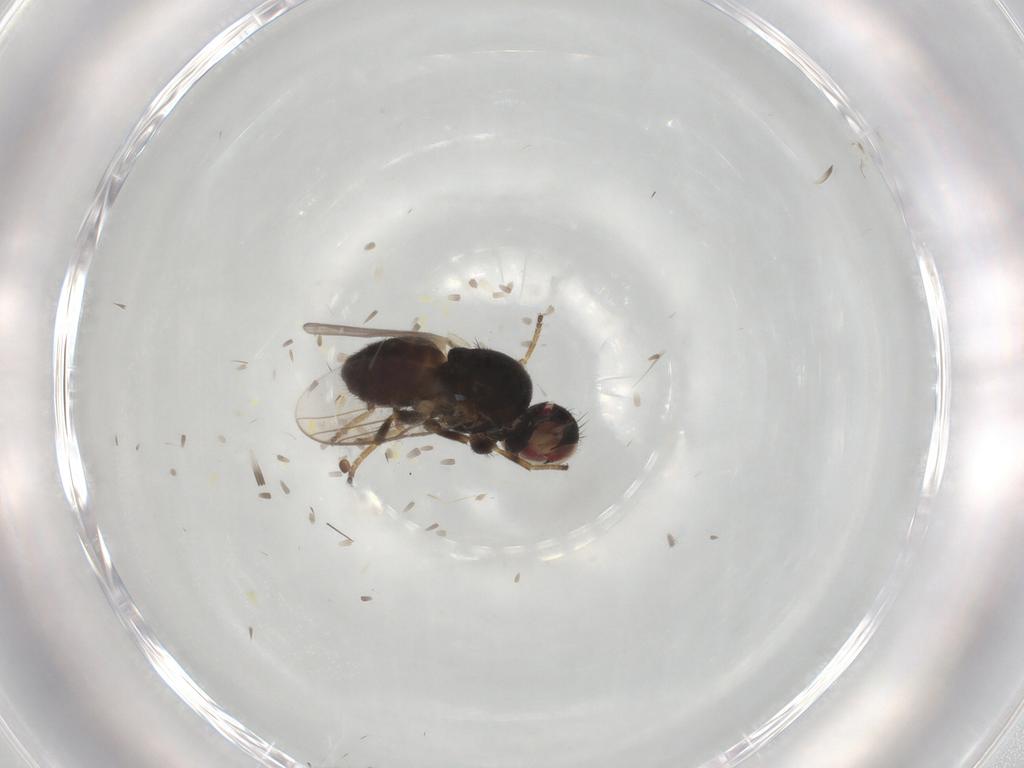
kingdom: Animalia
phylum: Arthropoda
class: Insecta
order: Diptera
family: Chloropidae
